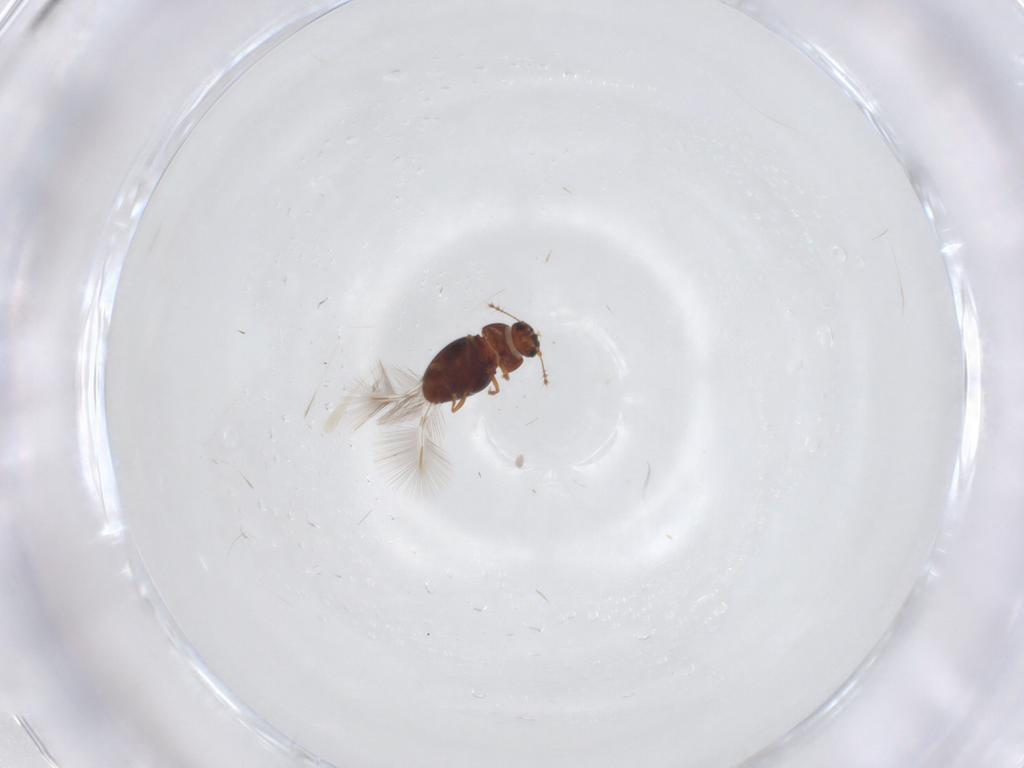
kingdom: Animalia
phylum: Arthropoda
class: Insecta
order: Coleoptera
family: Ptiliidae
